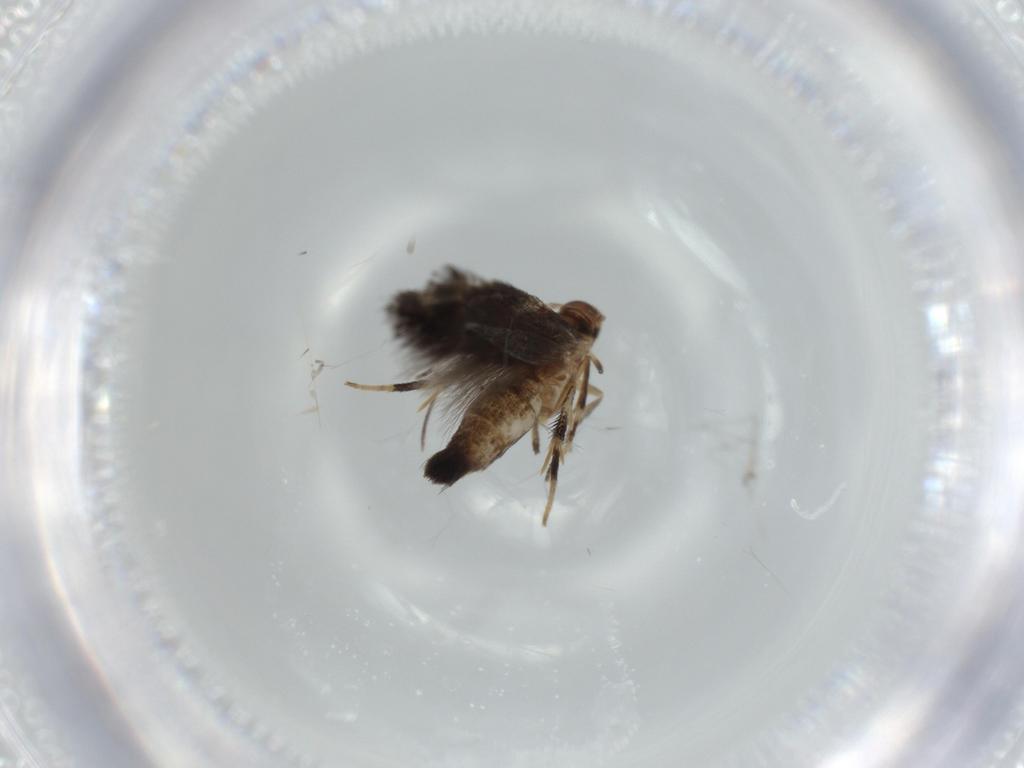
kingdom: Animalia
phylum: Arthropoda
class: Insecta
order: Lepidoptera
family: Cosmopterigidae
